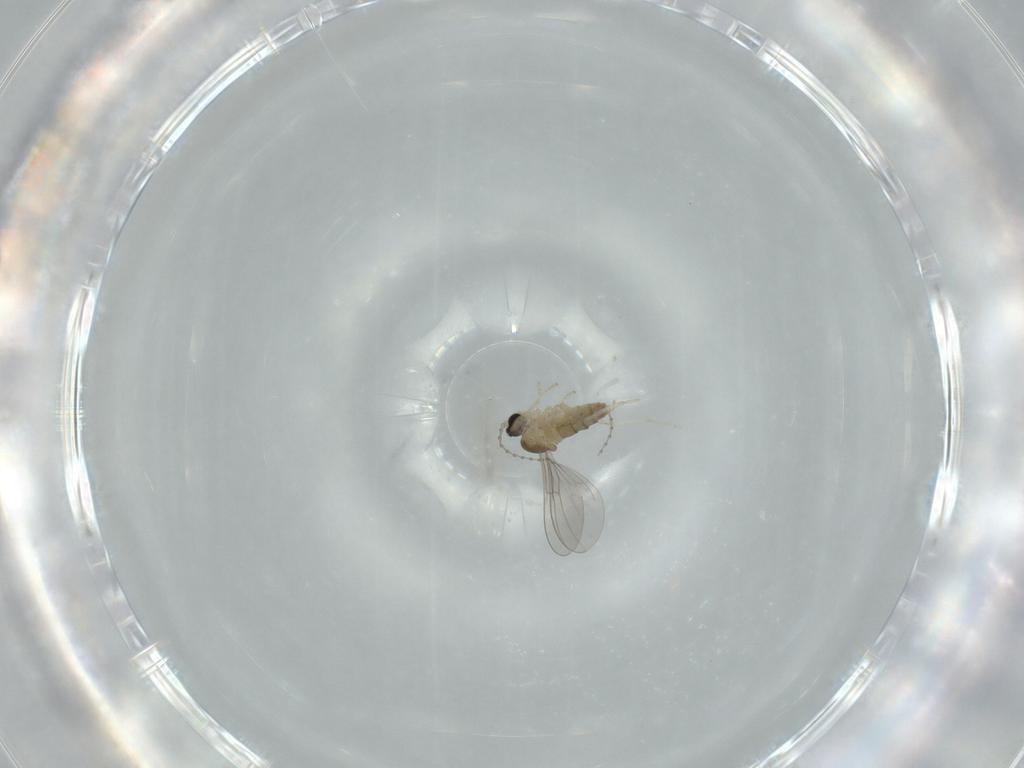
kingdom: Animalia
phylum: Arthropoda
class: Insecta
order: Diptera
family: Cecidomyiidae
